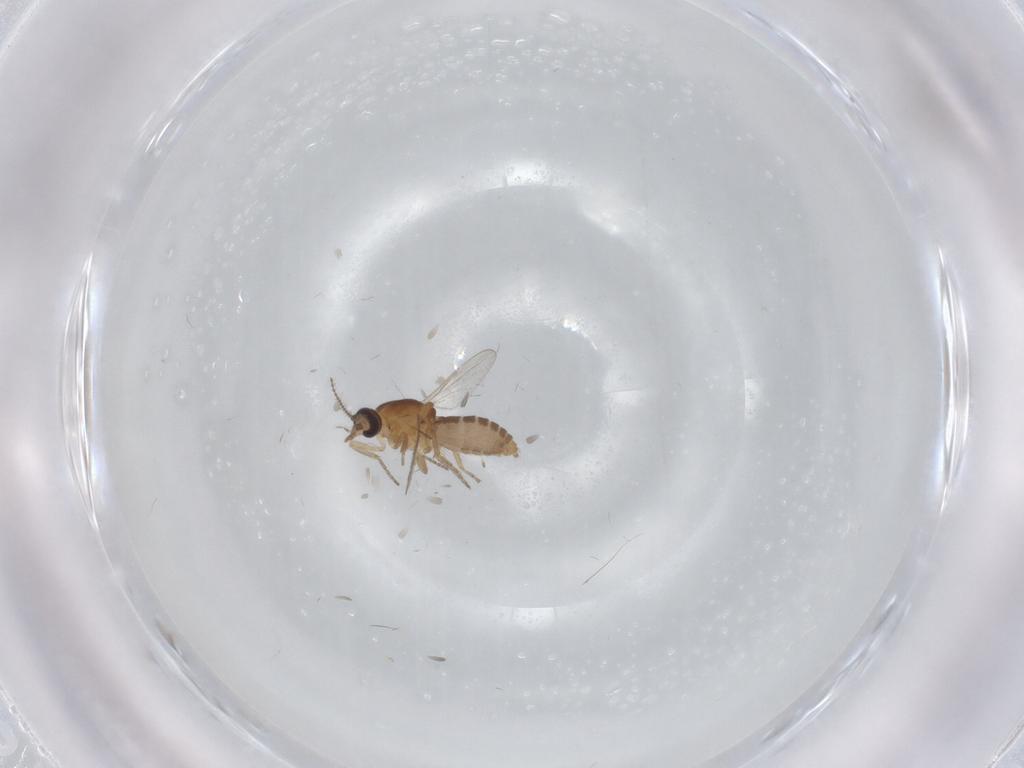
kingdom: Animalia
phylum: Arthropoda
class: Insecta
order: Diptera
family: Ceratopogonidae
